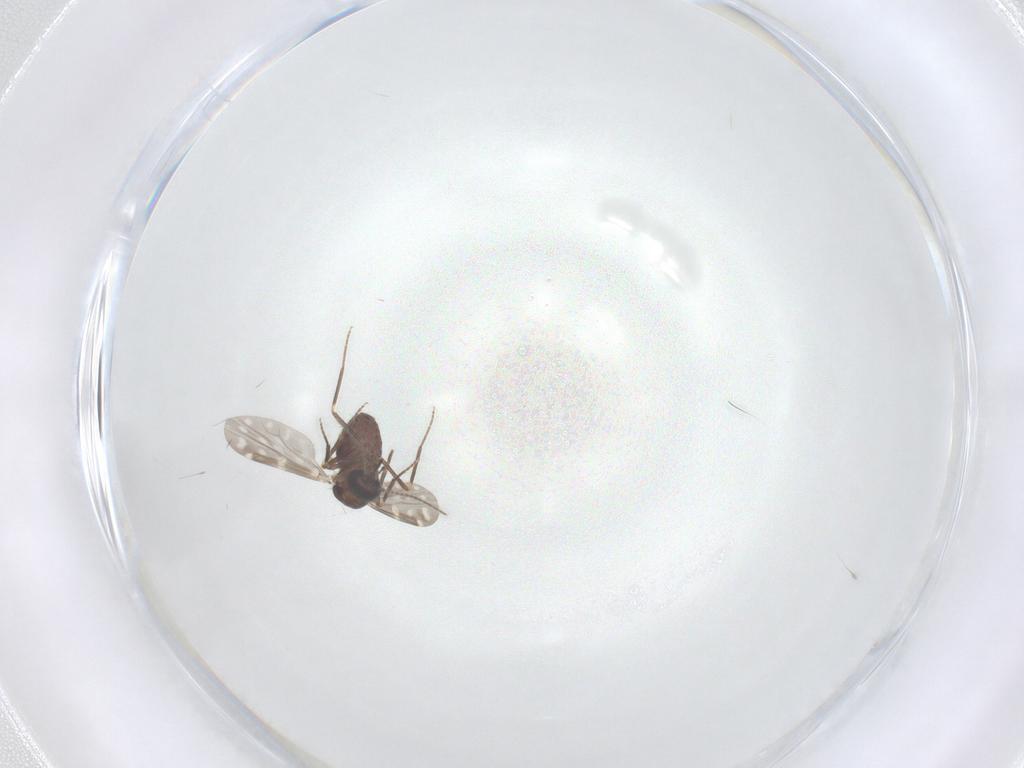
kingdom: Animalia
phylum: Arthropoda
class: Insecta
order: Diptera
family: Ceratopogonidae
